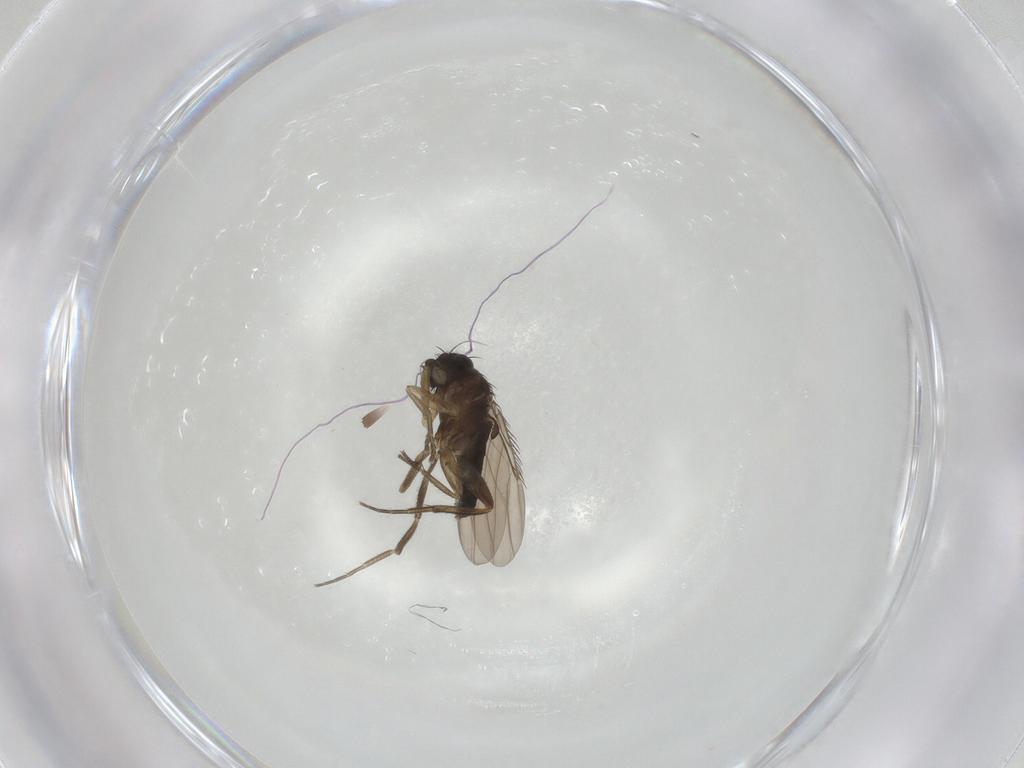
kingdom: Animalia
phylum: Arthropoda
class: Insecta
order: Diptera
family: Phoridae
